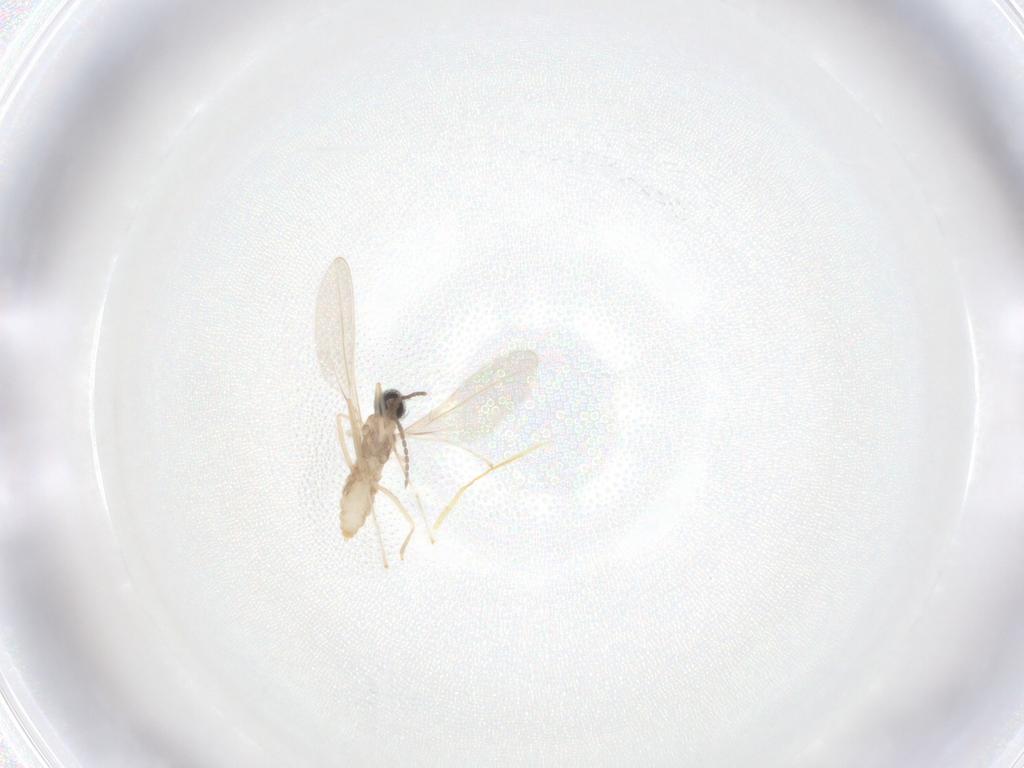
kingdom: Animalia
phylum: Arthropoda
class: Insecta
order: Diptera
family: Cecidomyiidae
